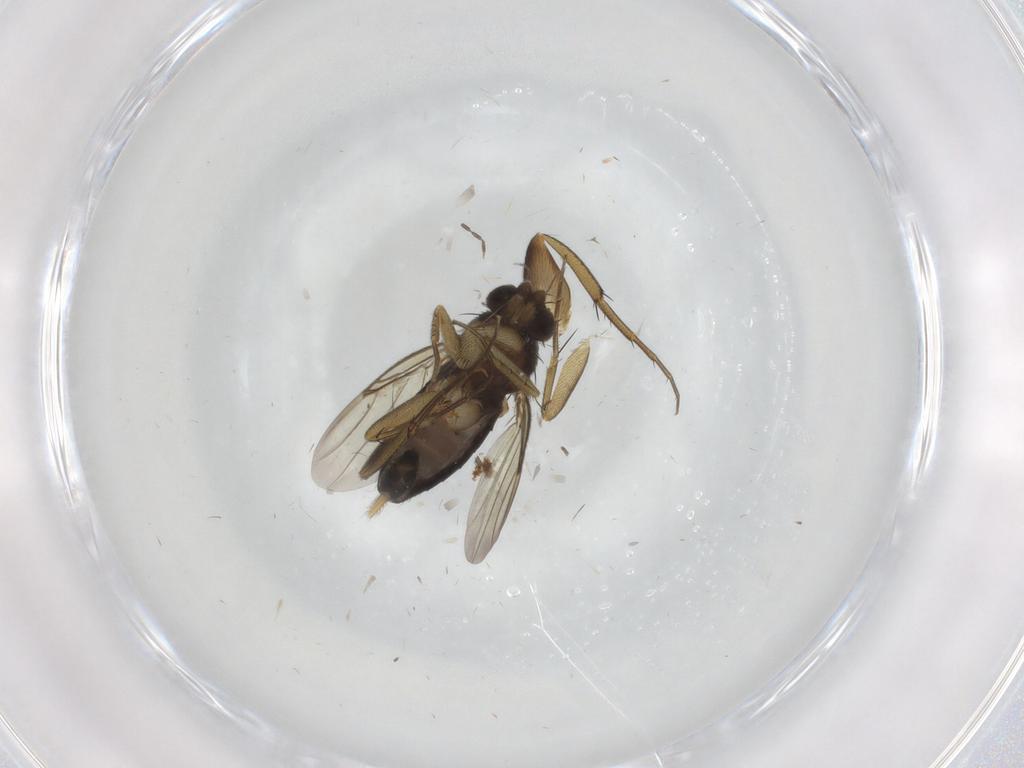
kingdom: Animalia
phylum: Arthropoda
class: Insecta
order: Diptera
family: Phoridae
